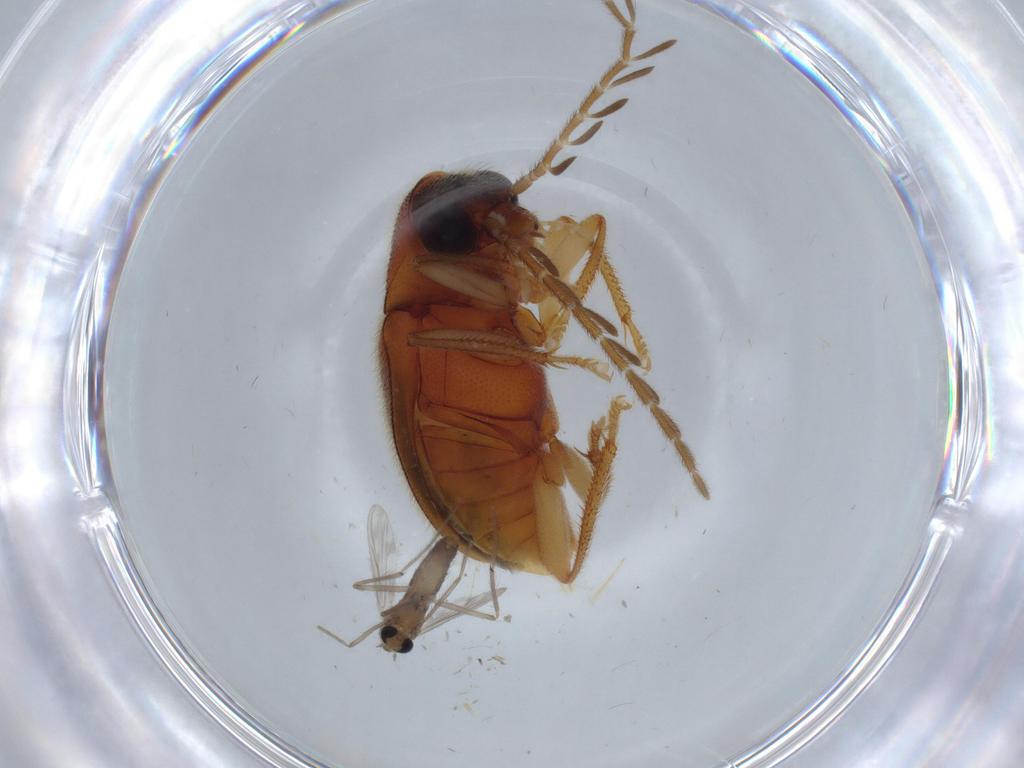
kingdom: Animalia
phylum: Arthropoda
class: Insecta
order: Coleoptera
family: Ptilodactylidae
